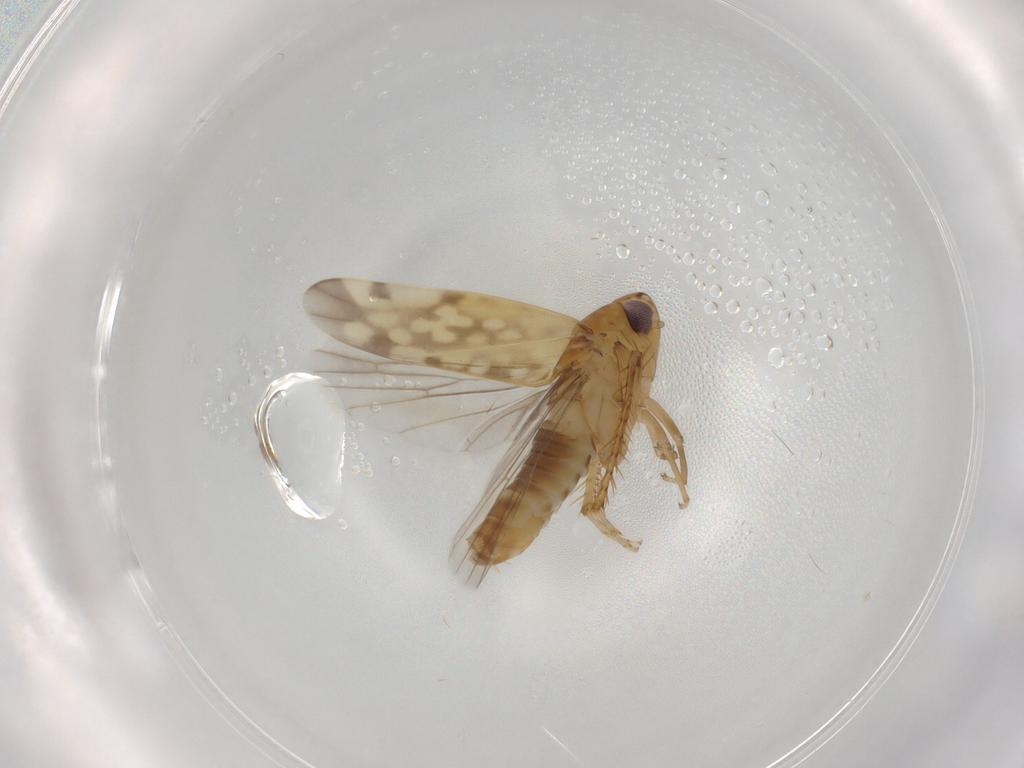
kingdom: Animalia
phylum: Arthropoda
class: Insecta
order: Hemiptera
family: Cicadellidae
